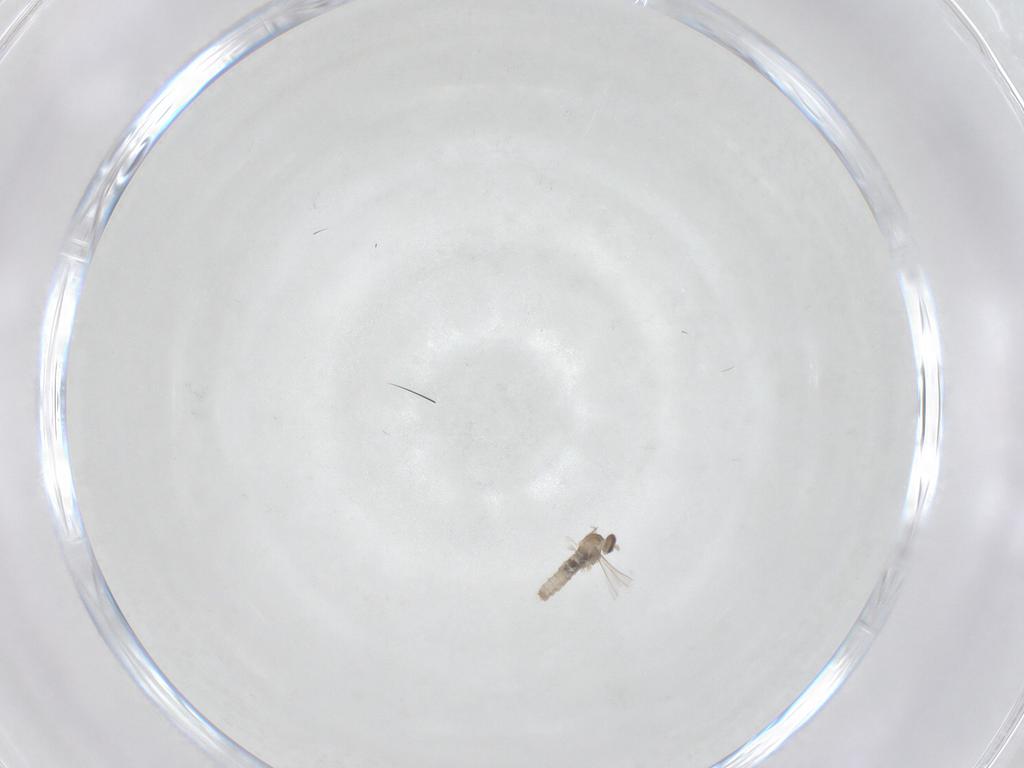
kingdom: Animalia
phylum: Arthropoda
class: Insecta
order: Diptera
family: Cecidomyiidae
